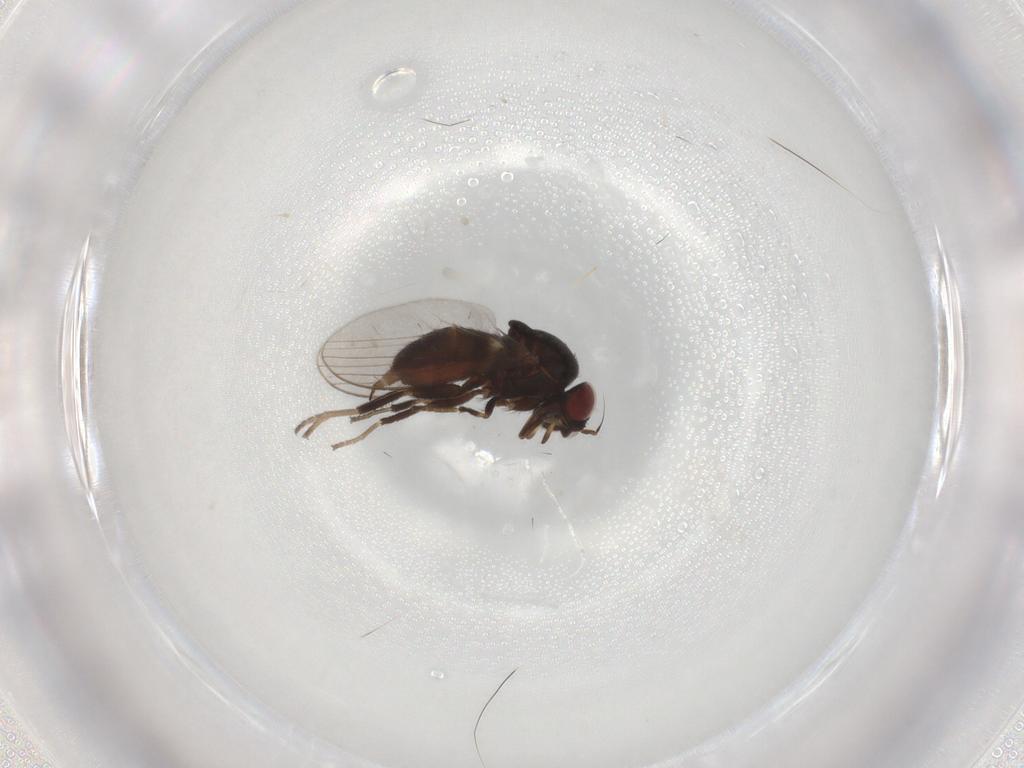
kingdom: Animalia
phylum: Arthropoda
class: Insecta
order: Diptera
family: Milichiidae
